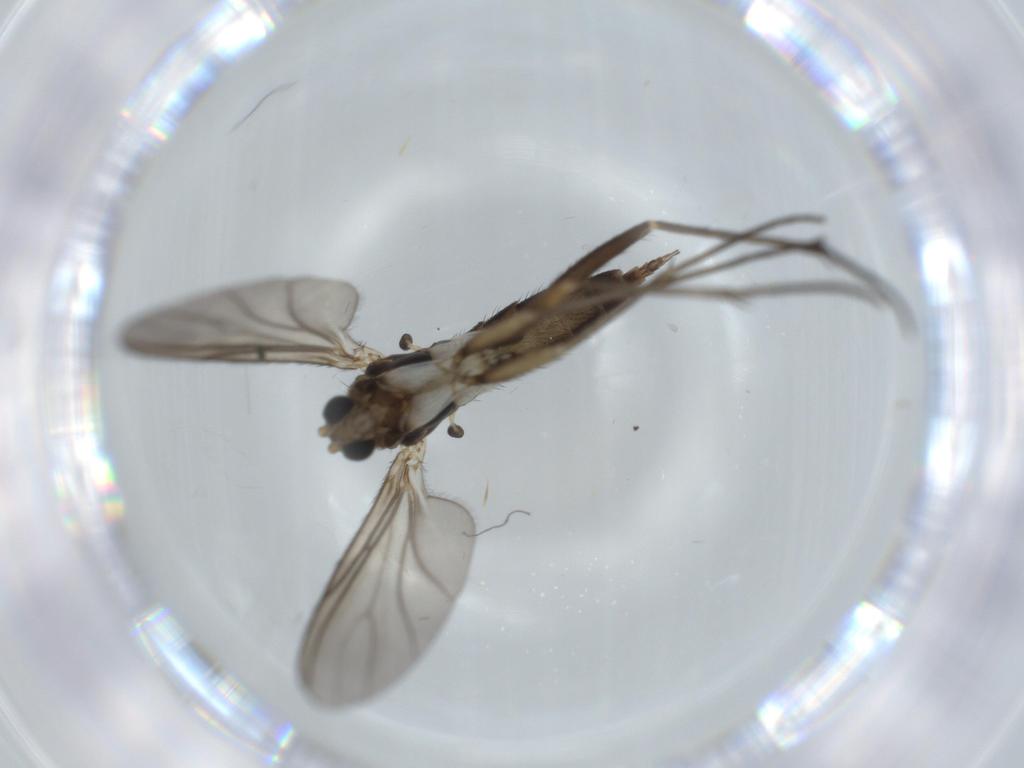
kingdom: Animalia
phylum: Arthropoda
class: Insecta
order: Diptera
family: Sciaridae
